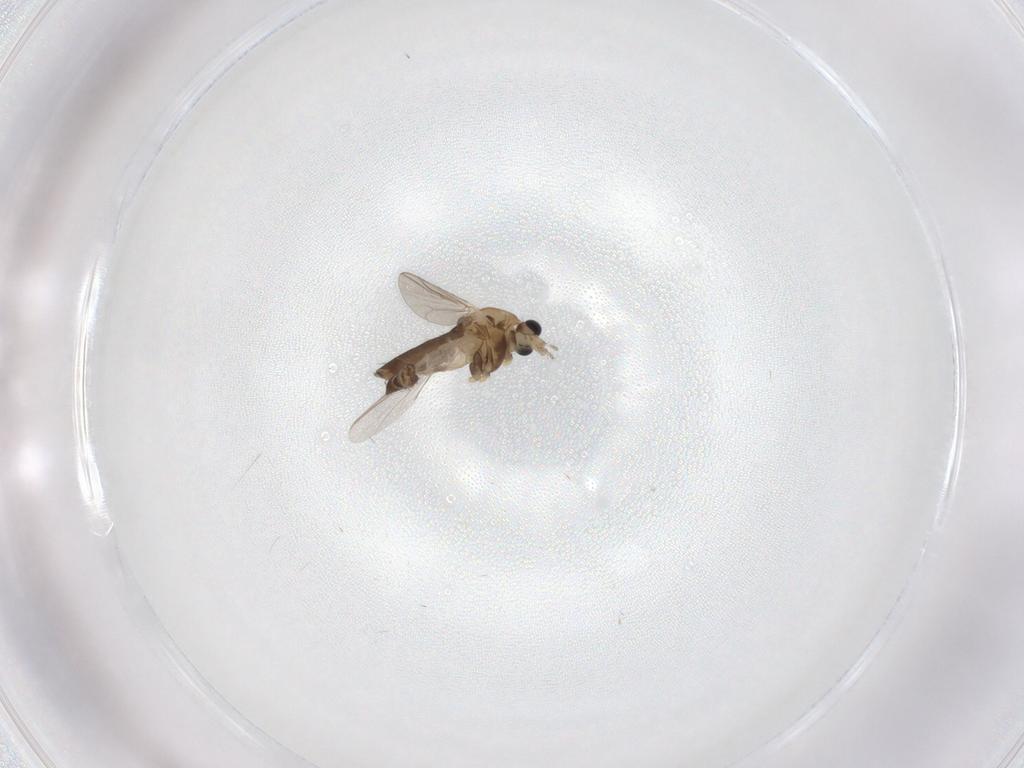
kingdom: Animalia
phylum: Arthropoda
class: Insecta
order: Diptera
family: Chironomidae
